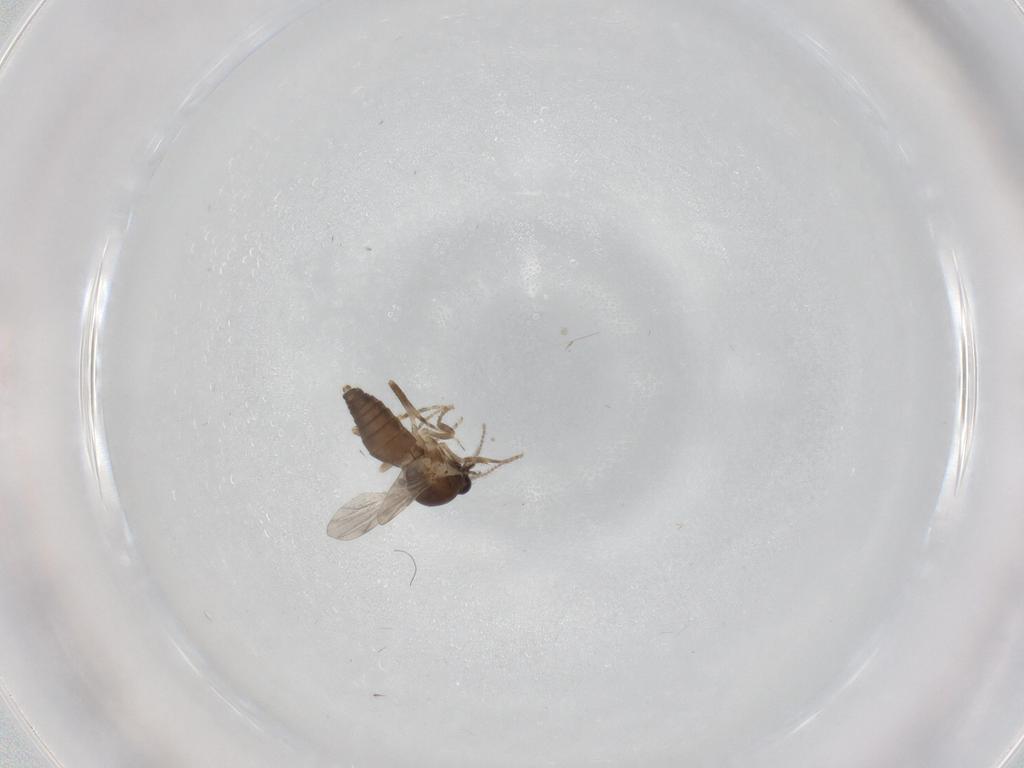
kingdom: Animalia
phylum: Arthropoda
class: Insecta
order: Diptera
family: Ceratopogonidae
